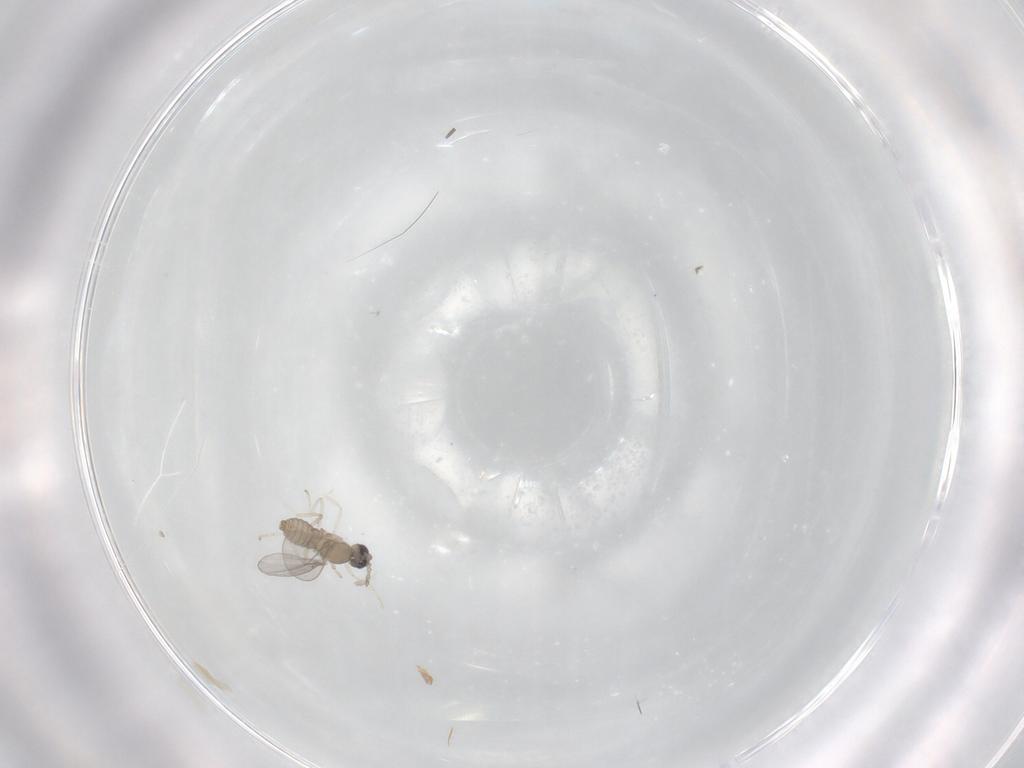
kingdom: Animalia
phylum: Arthropoda
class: Insecta
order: Diptera
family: Cecidomyiidae
